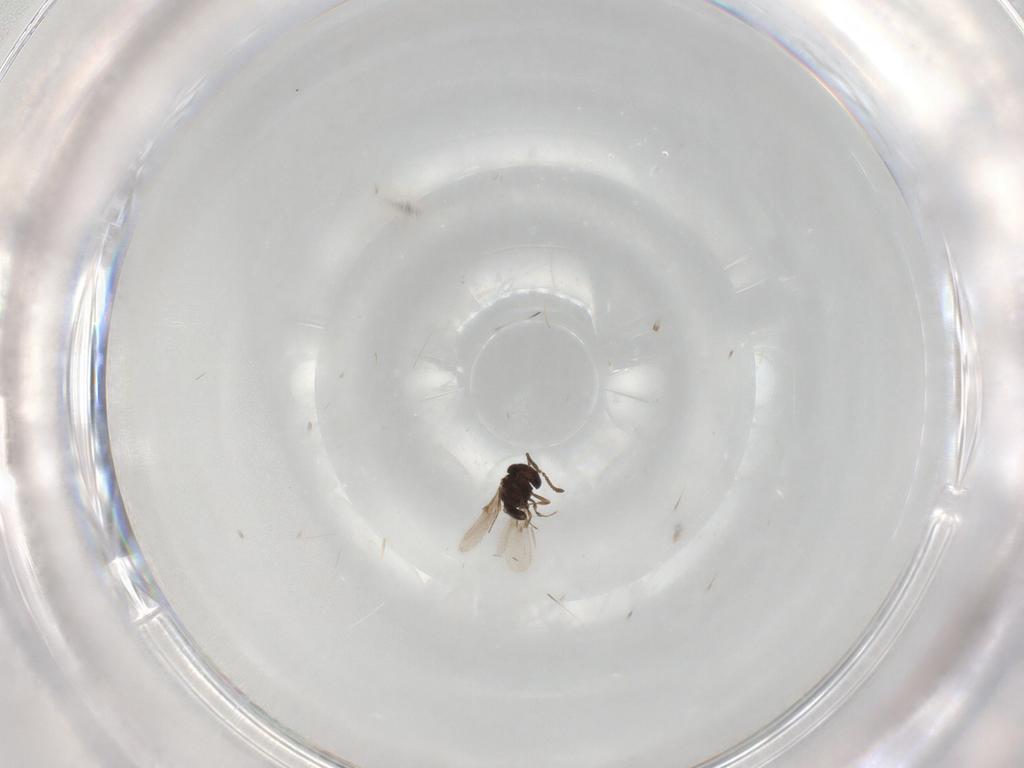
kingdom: Animalia
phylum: Arthropoda
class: Insecta
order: Hymenoptera
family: Scelionidae
